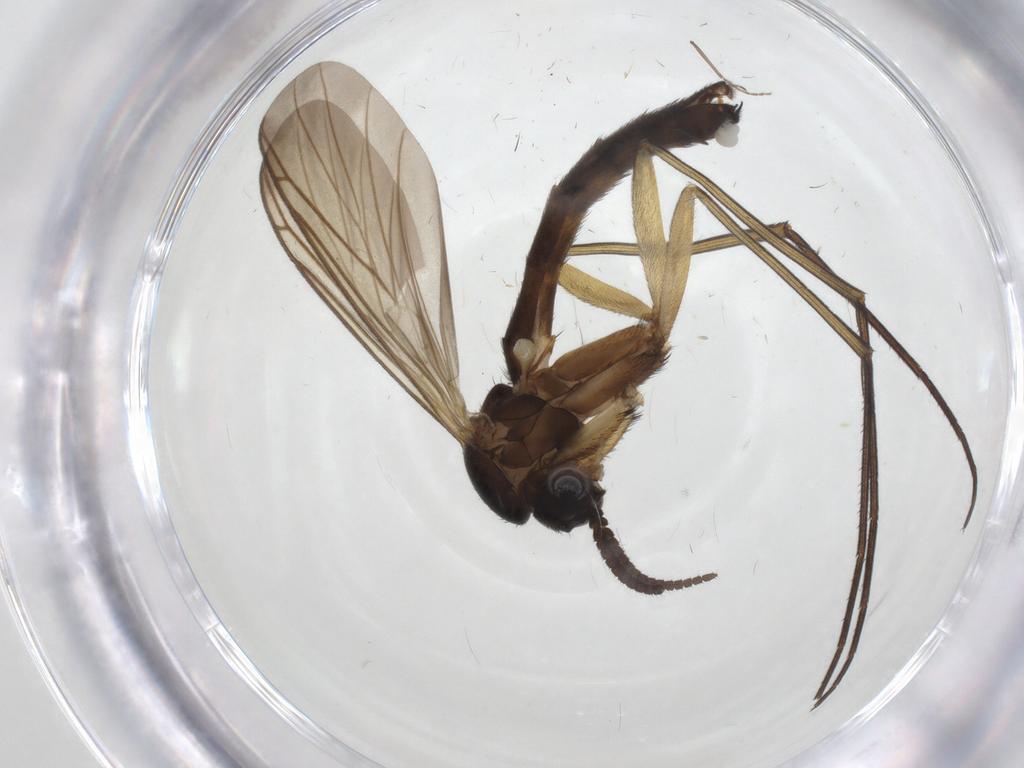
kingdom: Animalia
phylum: Arthropoda
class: Insecta
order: Diptera
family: Keroplatidae
